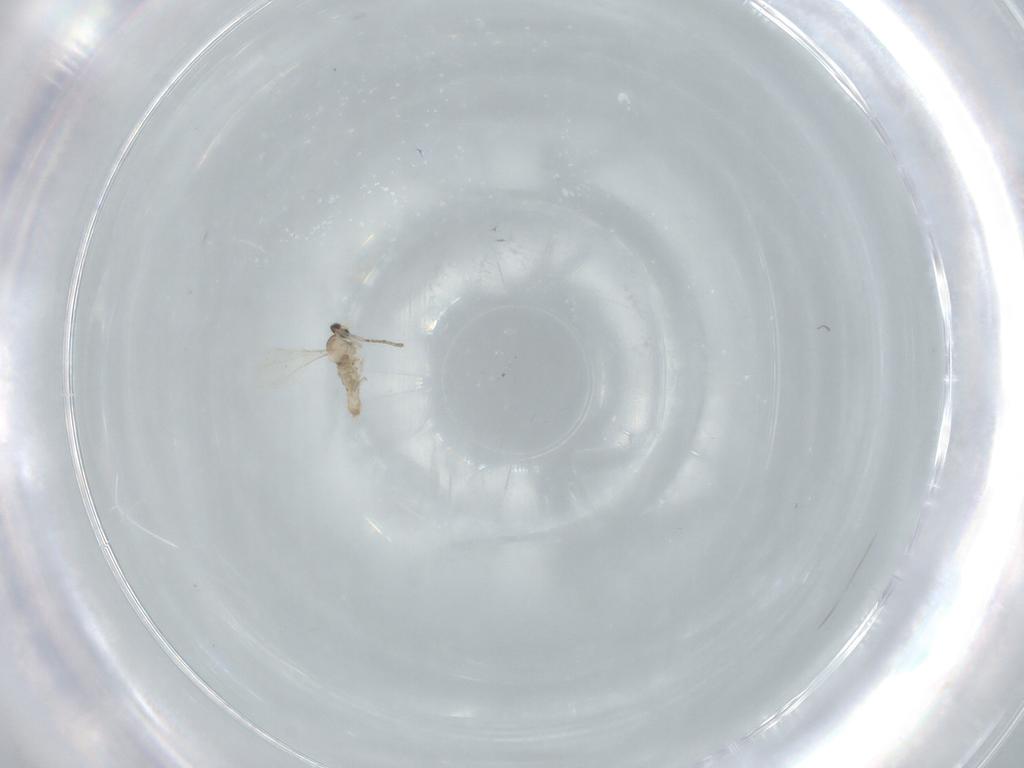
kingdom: Animalia
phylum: Arthropoda
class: Insecta
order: Diptera
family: Cecidomyiidae
